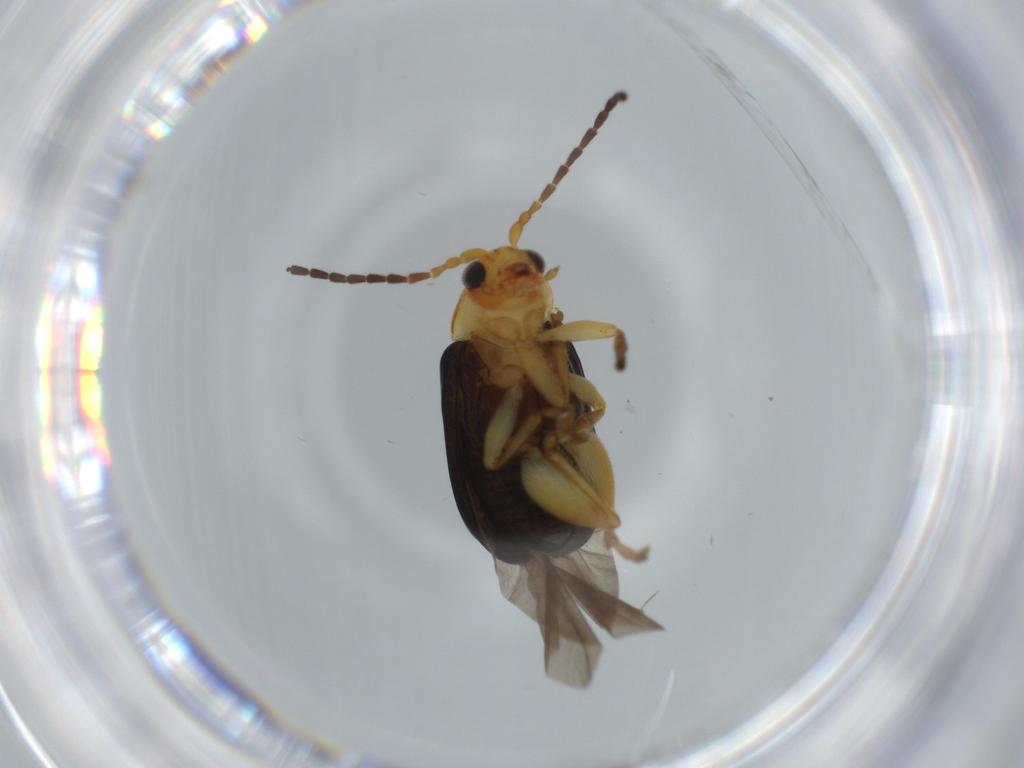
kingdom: Animalia
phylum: Arthropoda
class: Insecta
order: Coleoptera
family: Chrysomelidae
